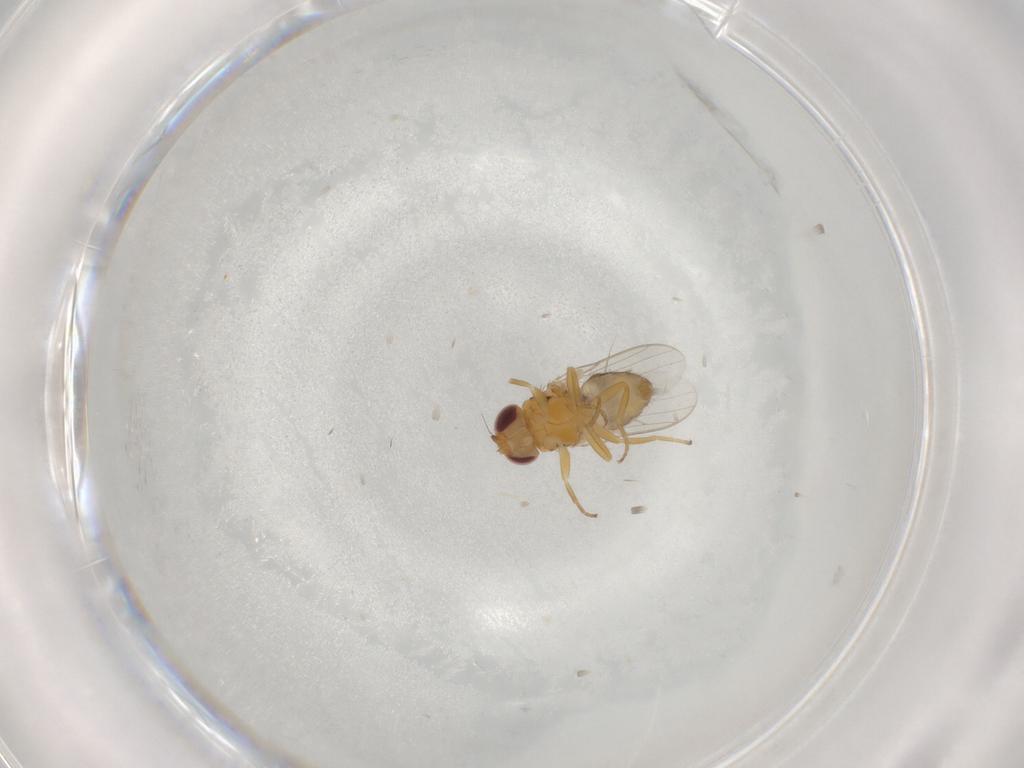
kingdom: Animalia
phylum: Arthropoda
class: Insecta
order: Diptera
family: Chloropidae
